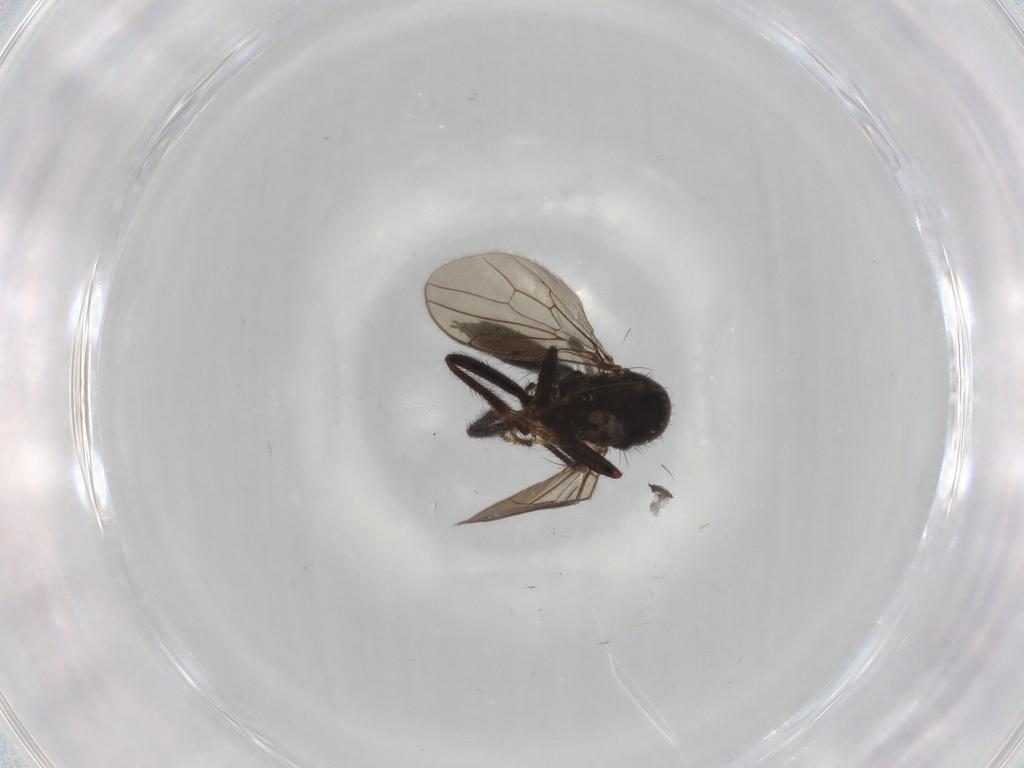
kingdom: Animalia
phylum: Arthropoda
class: Insecta
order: Diptera
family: Hybotidae
